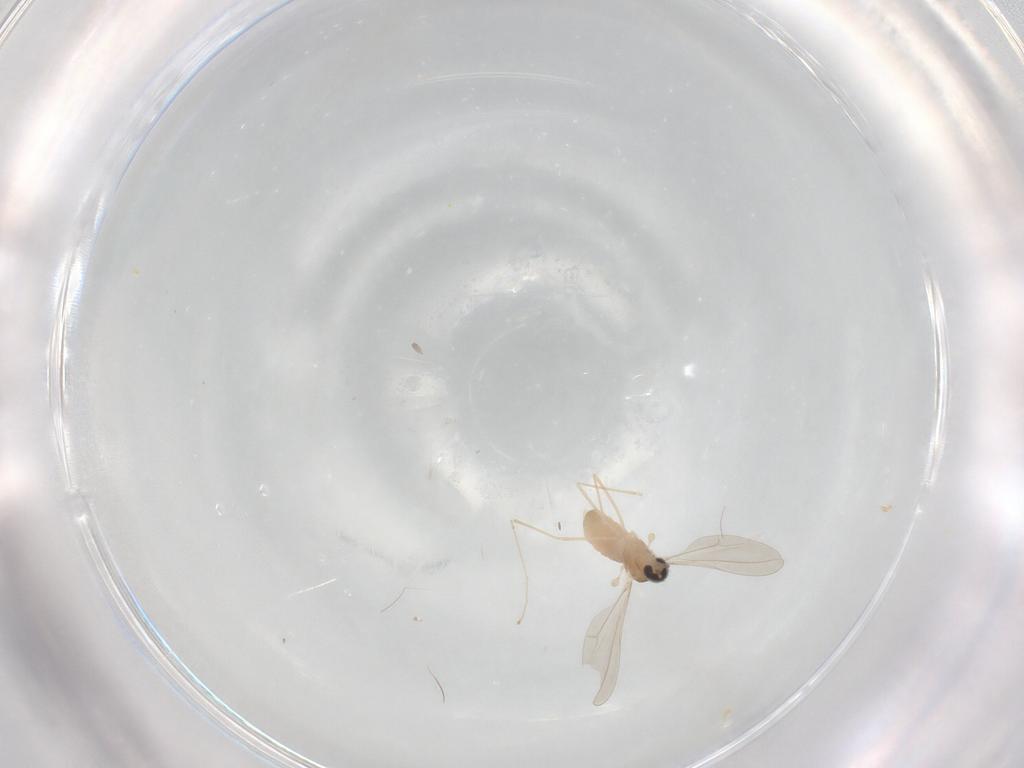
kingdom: Animalia
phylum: Arthropoda
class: Insecta
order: Diptera
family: Cecidomyiidae
